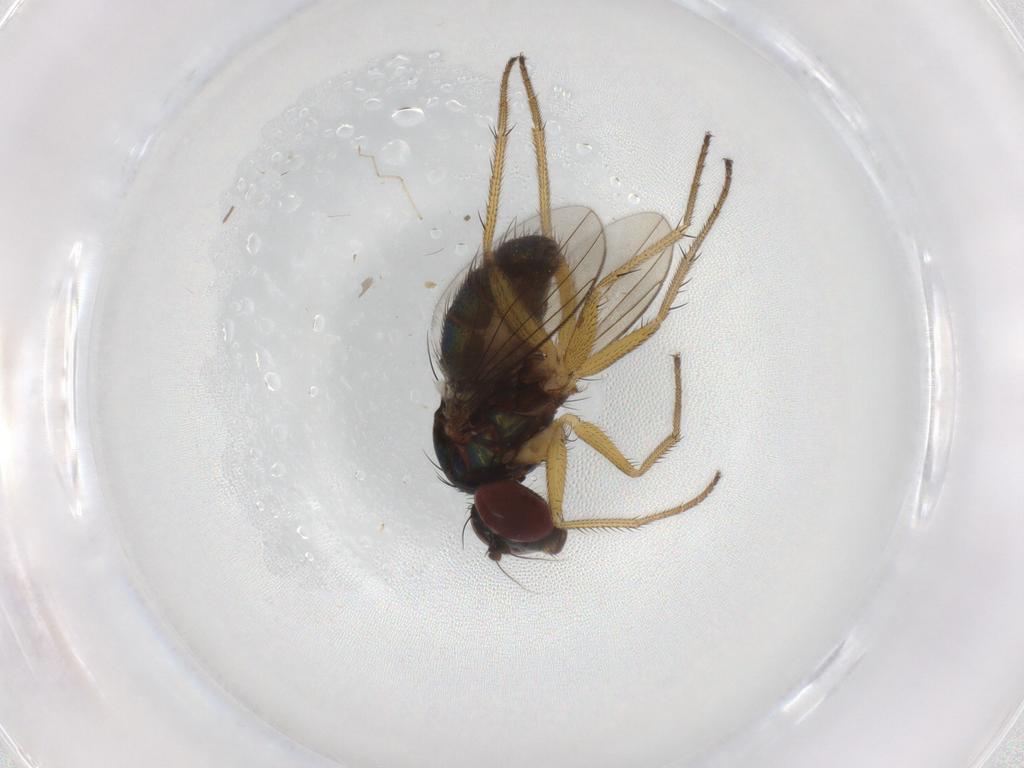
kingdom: Animalia
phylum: Arthropoda
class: Insecta
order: Diptera
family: Dolichopodidae
